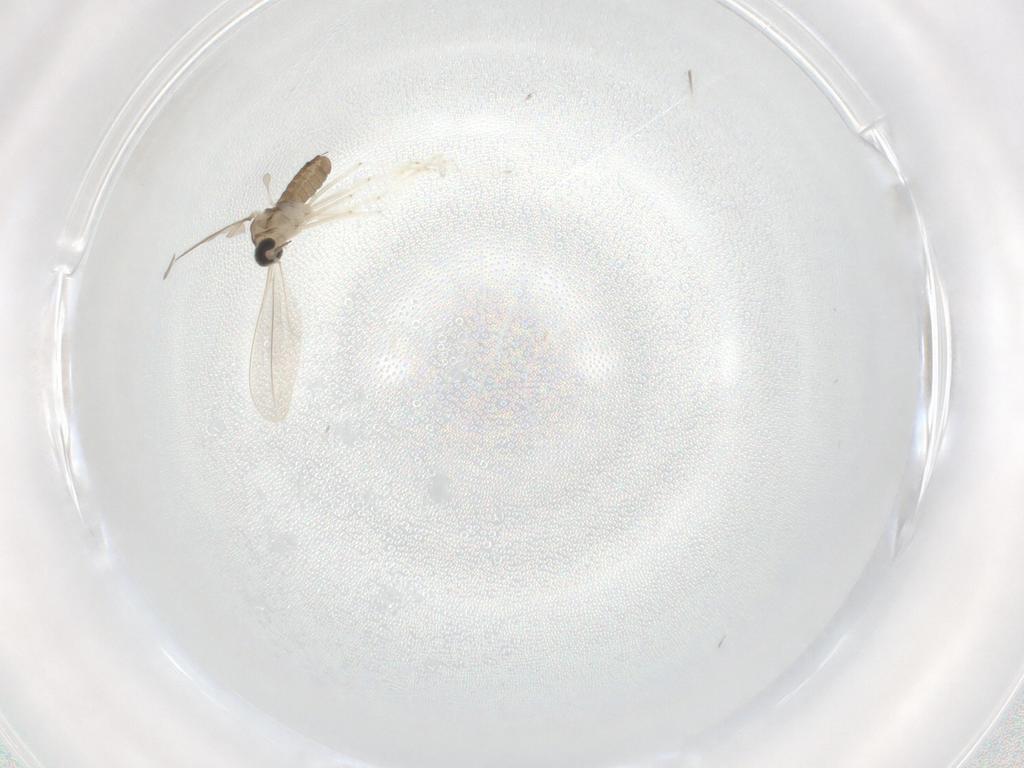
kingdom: Animalia
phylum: Arthropoda
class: Insecta
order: Diptera
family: Cecidomyiidae
